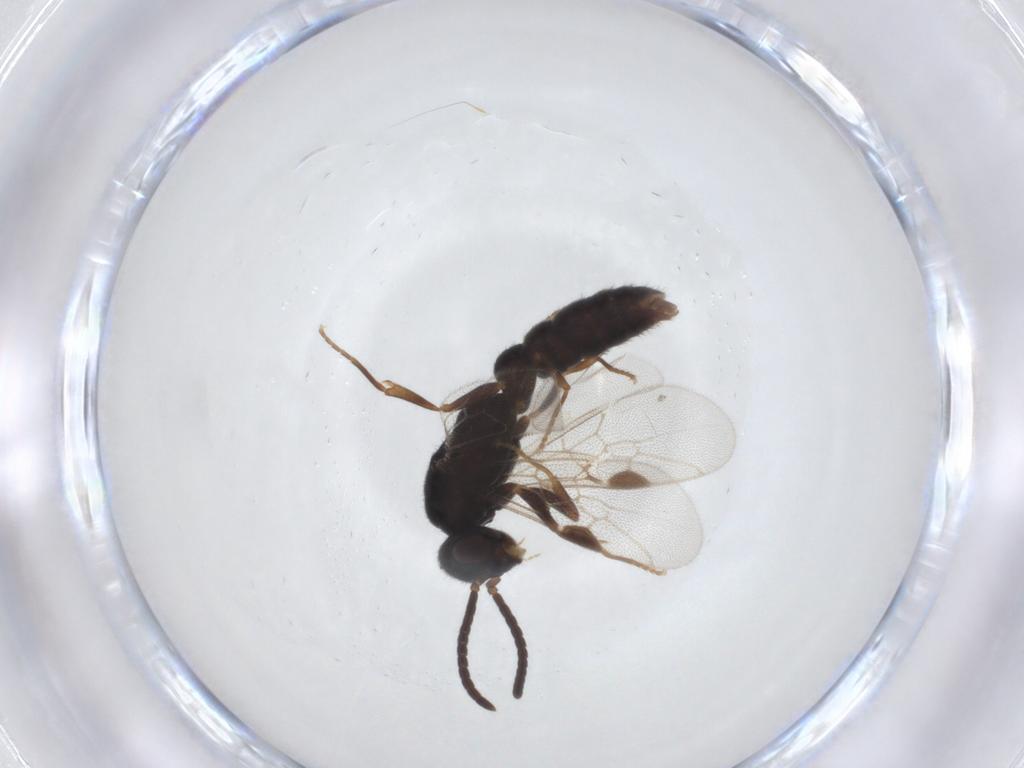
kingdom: Animalia
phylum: Arthropoda
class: Insecta
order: Hymenoptera
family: Formicidae
